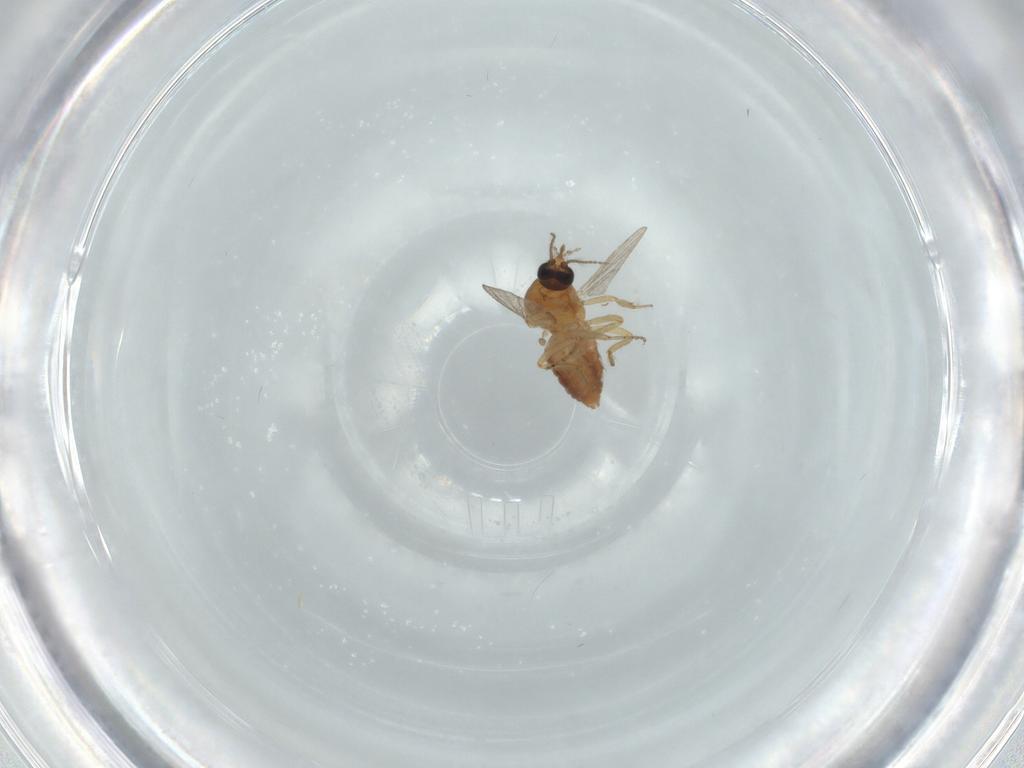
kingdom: Animalia
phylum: Arthropoda
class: Insecta
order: Diptera
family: Ceratopogonidae
